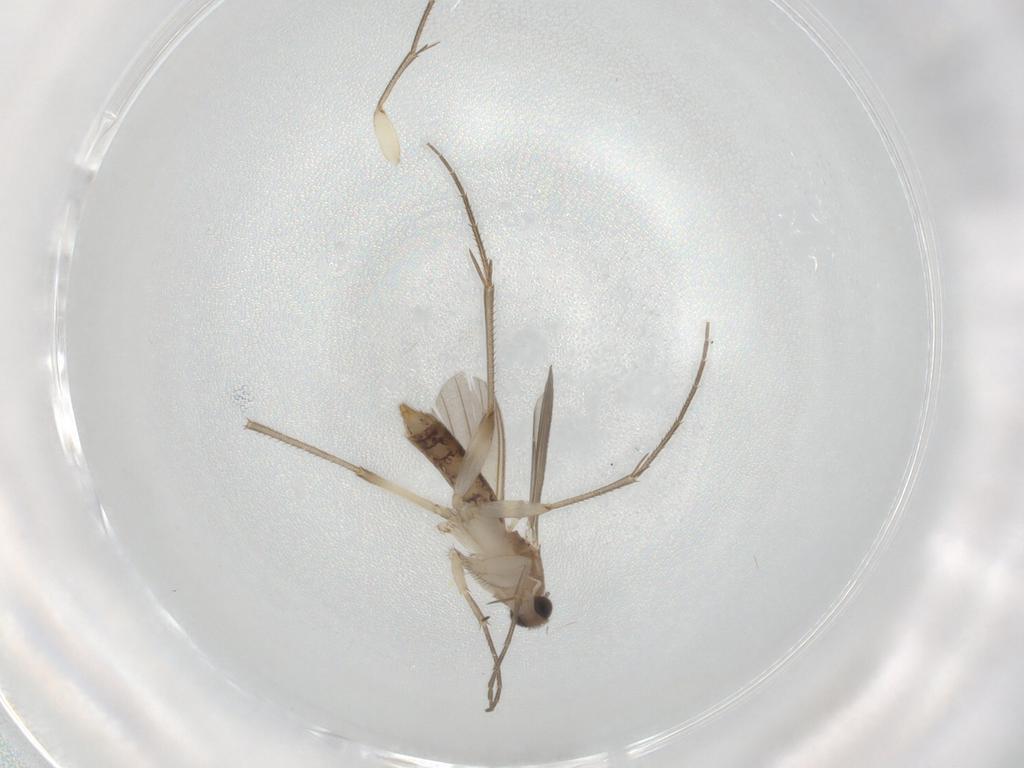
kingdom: Animalia
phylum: Arthropoda
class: Insecta
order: Diptera
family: Mycetophilidae
